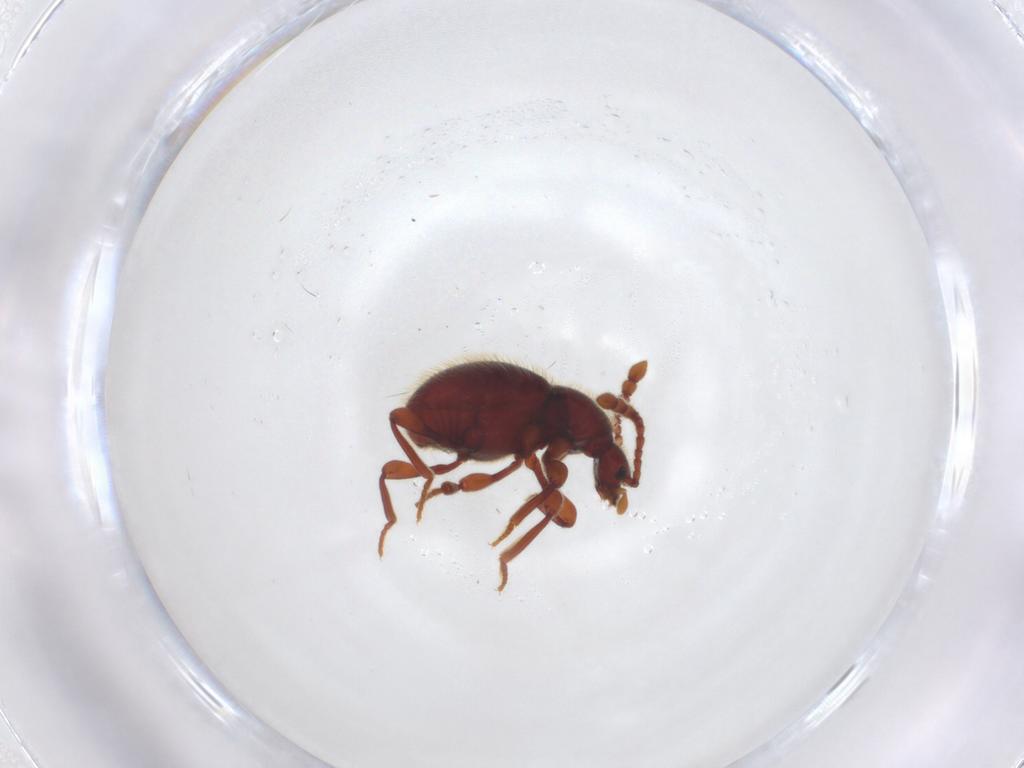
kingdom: Animalia
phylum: Arthropoda
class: Insecta
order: Coleoptera
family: Staphylinidae
